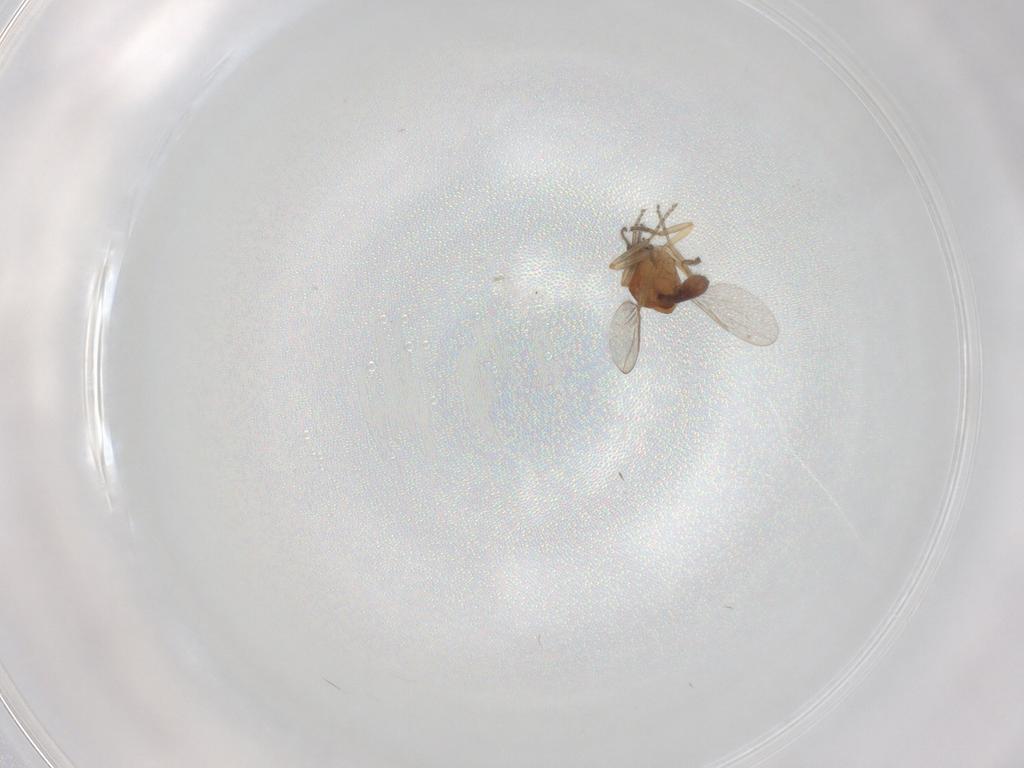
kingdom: Animalia
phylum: Arthropoda
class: Insecta
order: Diptera
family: Ceratopogonidae
